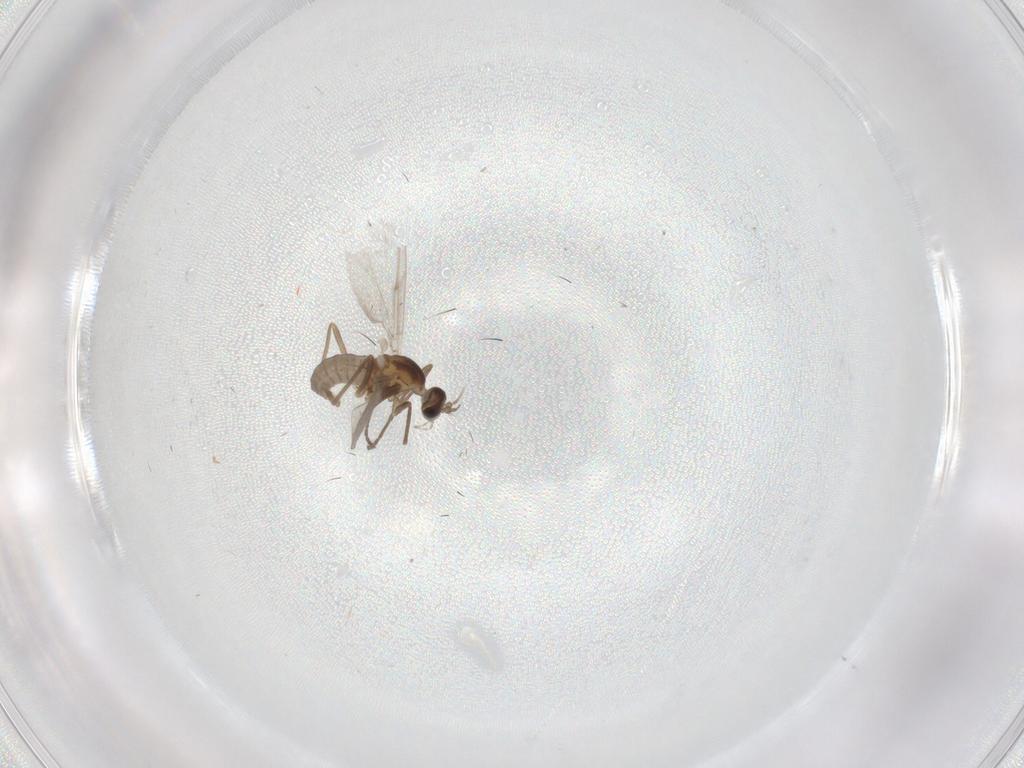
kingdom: Animalia
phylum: Arthropoda
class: Insecta
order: Diptera
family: Cecidomyiidae
